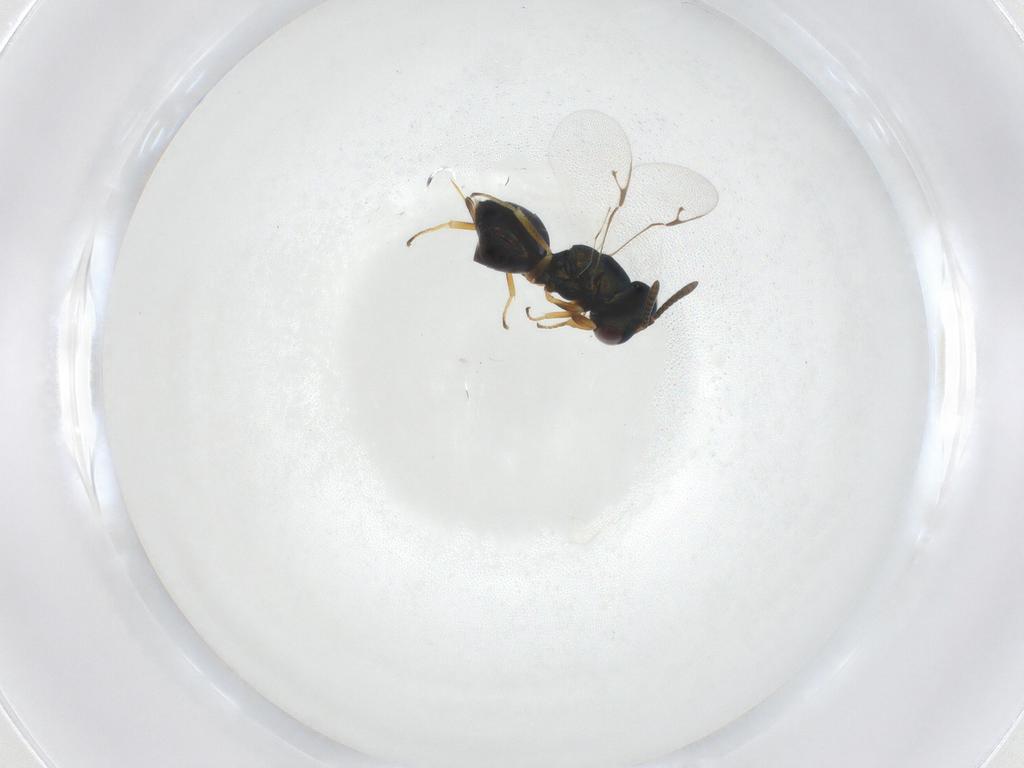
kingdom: Animalia
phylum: Arthropoda
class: Insecta
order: Hymenoptera
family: Pteromalidae
